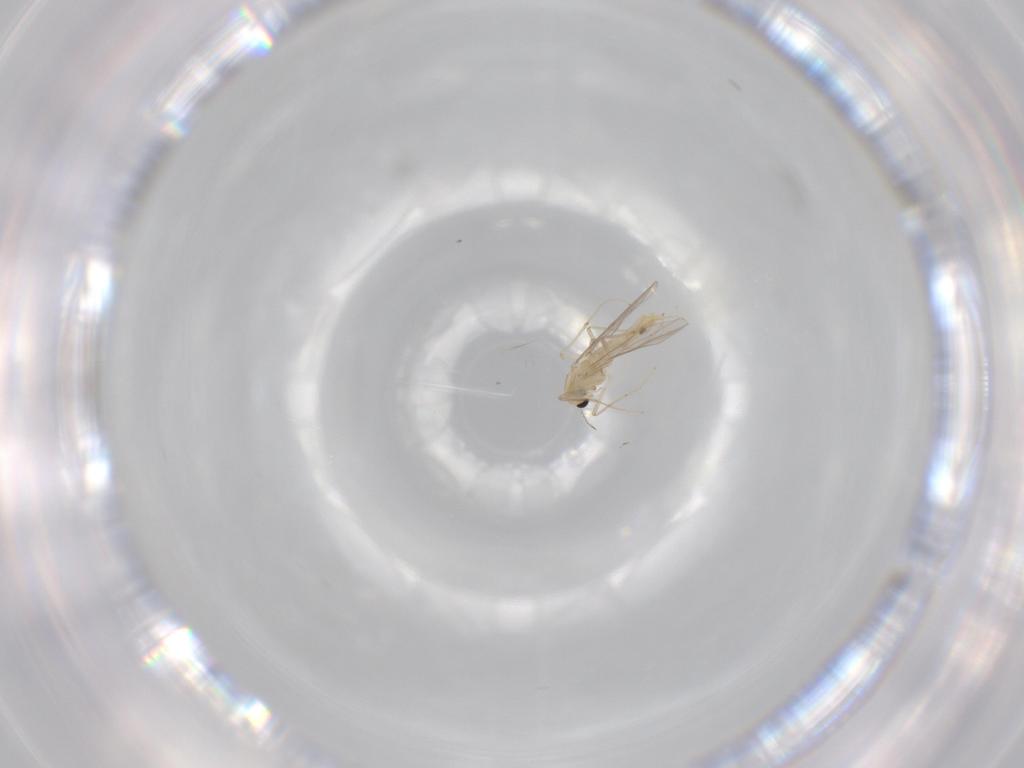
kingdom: Animalia
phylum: Arthropoda
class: Insecta
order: Diptera
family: Chironomidae
